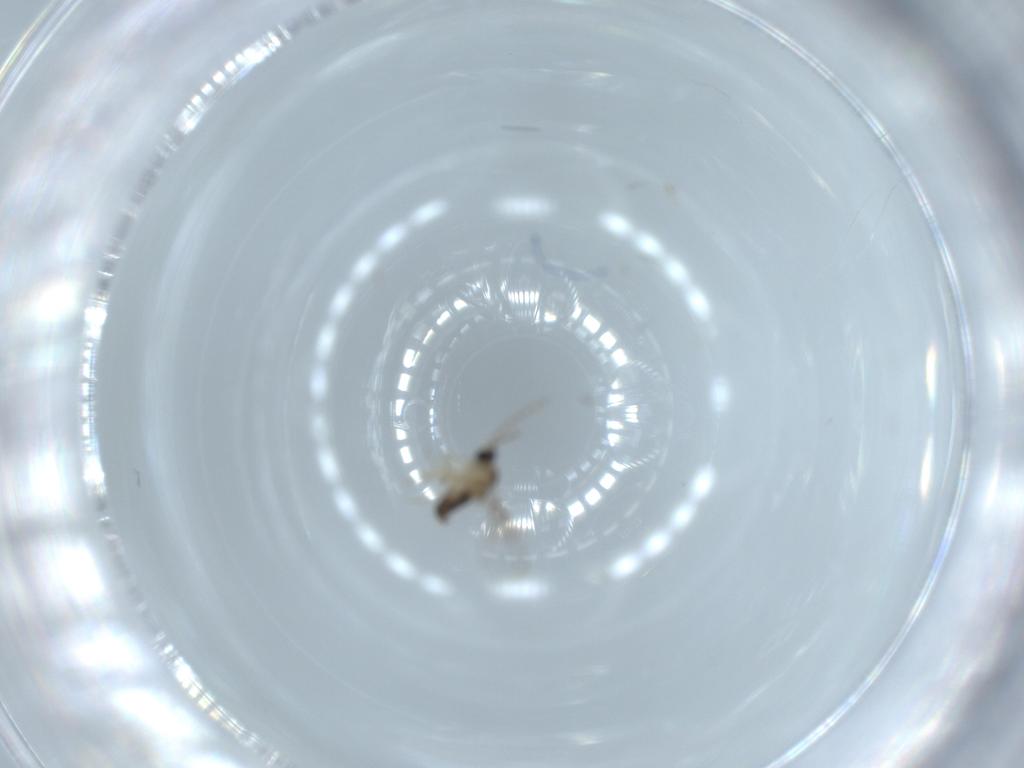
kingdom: Animalia
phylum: Arthropoda
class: Insecta
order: Diptera
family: Cecidomyiidae
